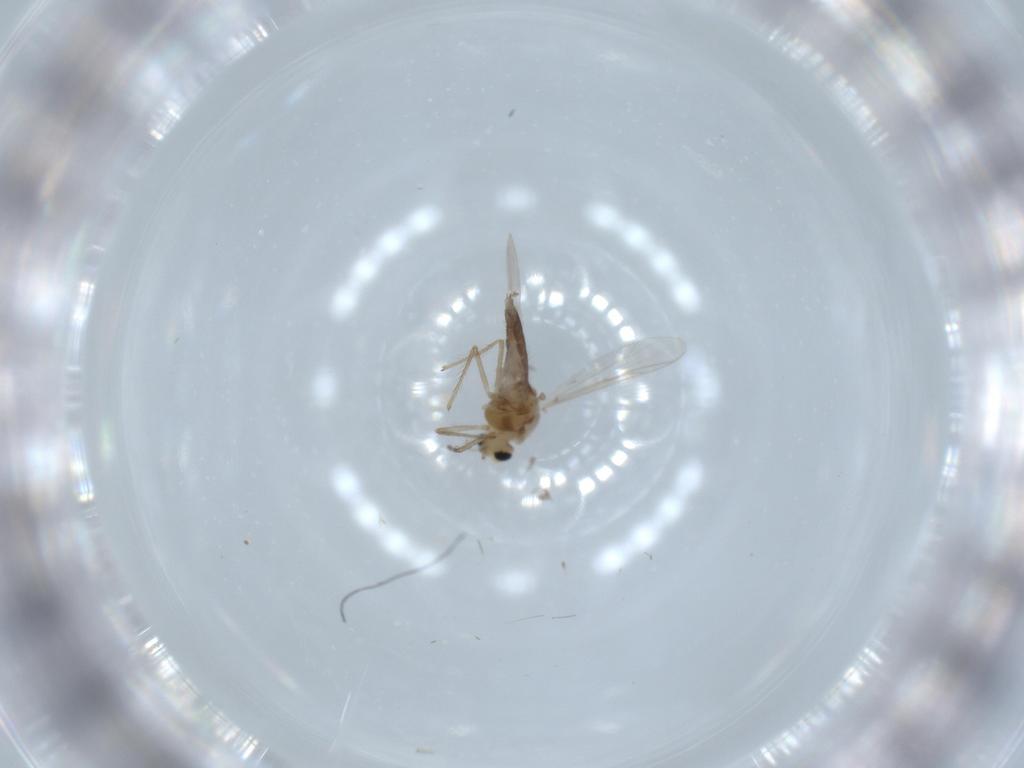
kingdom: Animalia
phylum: Arthropoda
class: Insecta
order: Diptera
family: Chironomidae
